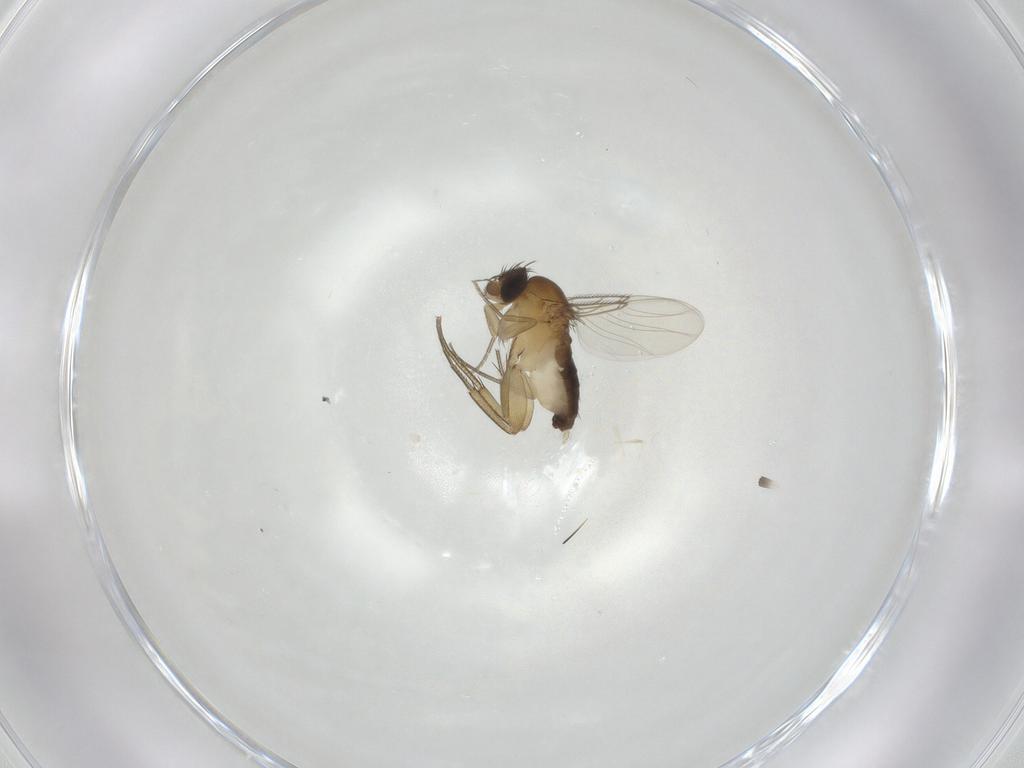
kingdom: Animalia
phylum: Arthropoda
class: Insecta
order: Diptera
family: Phoridae
